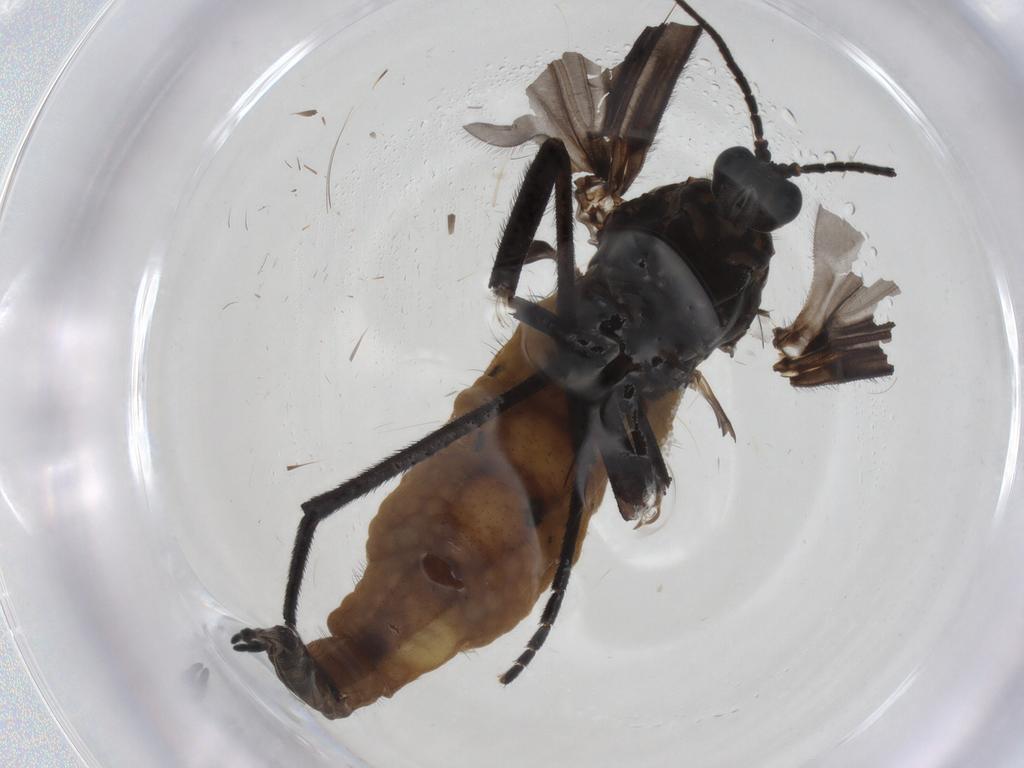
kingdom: Animalia
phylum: Arthropoda
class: Insecta
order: Diptera
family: Sciaridae
